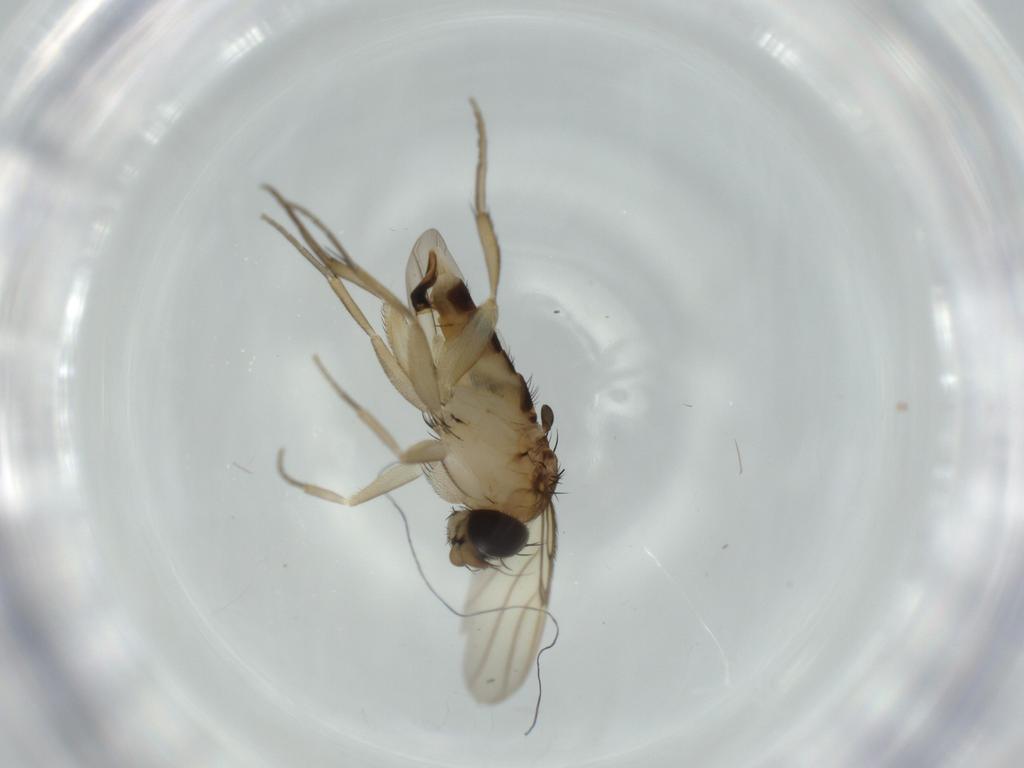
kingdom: Animalia
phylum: Arthropoda
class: Insecta
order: Diptera
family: Phoridae
